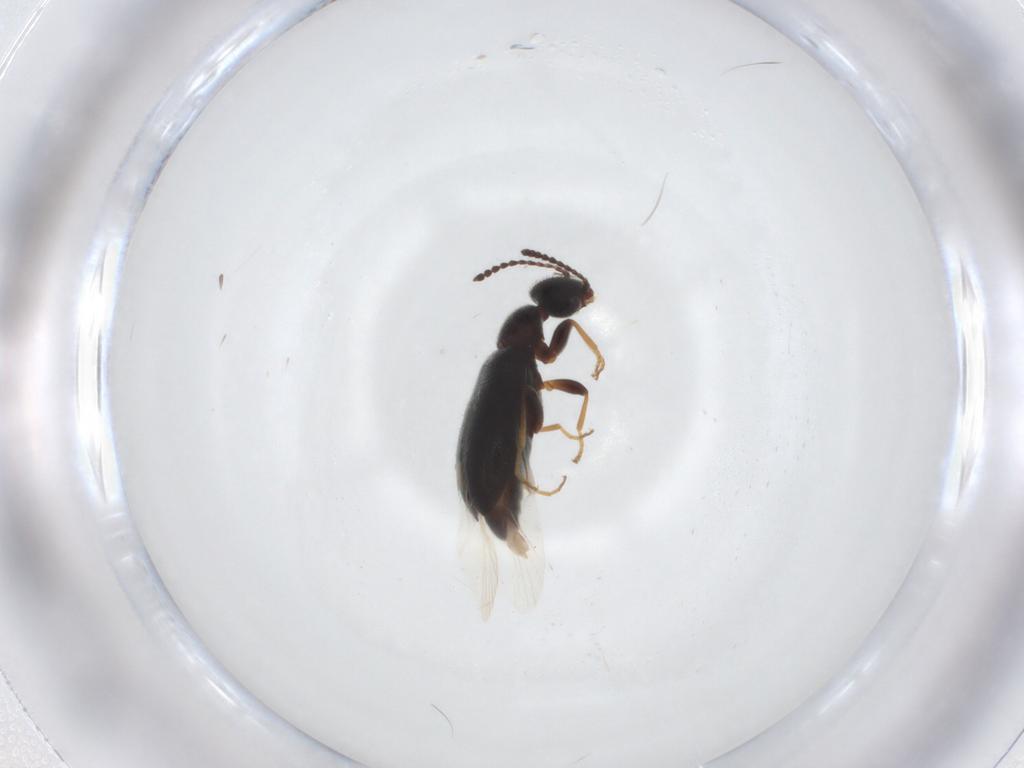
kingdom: Animalia
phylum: Arthropoda
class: Insecta
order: Coleoptera
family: Anthicidae
